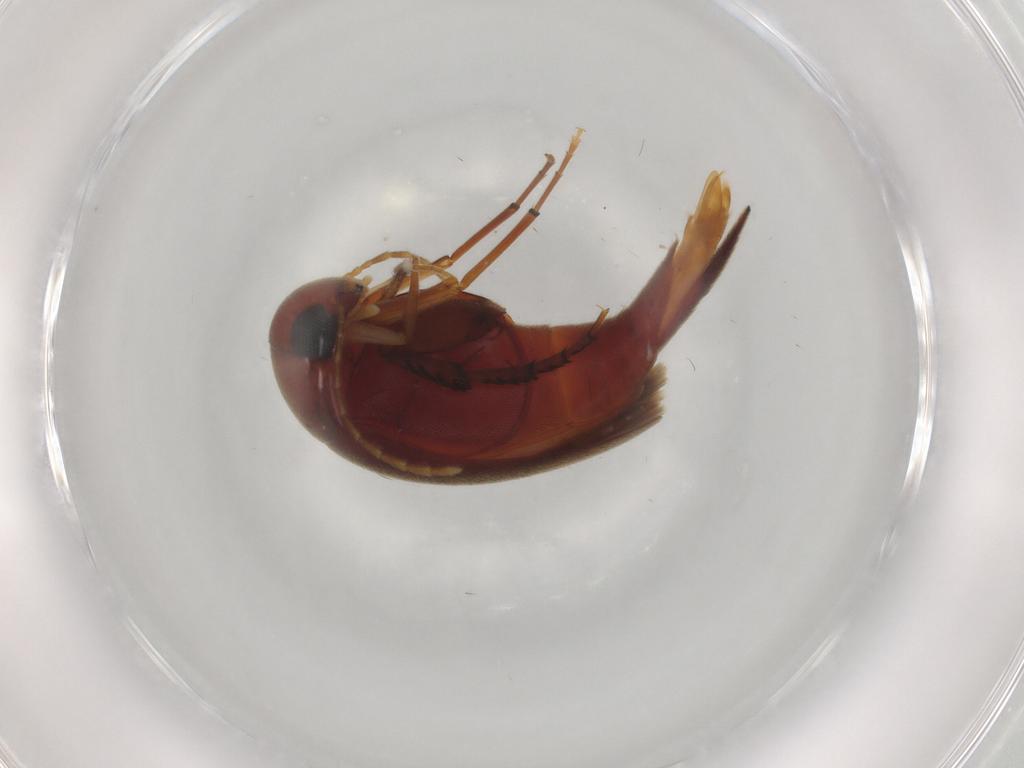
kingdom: Animalia
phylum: Arthropoda
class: Insecta
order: Coleoptera
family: Mordellidae
